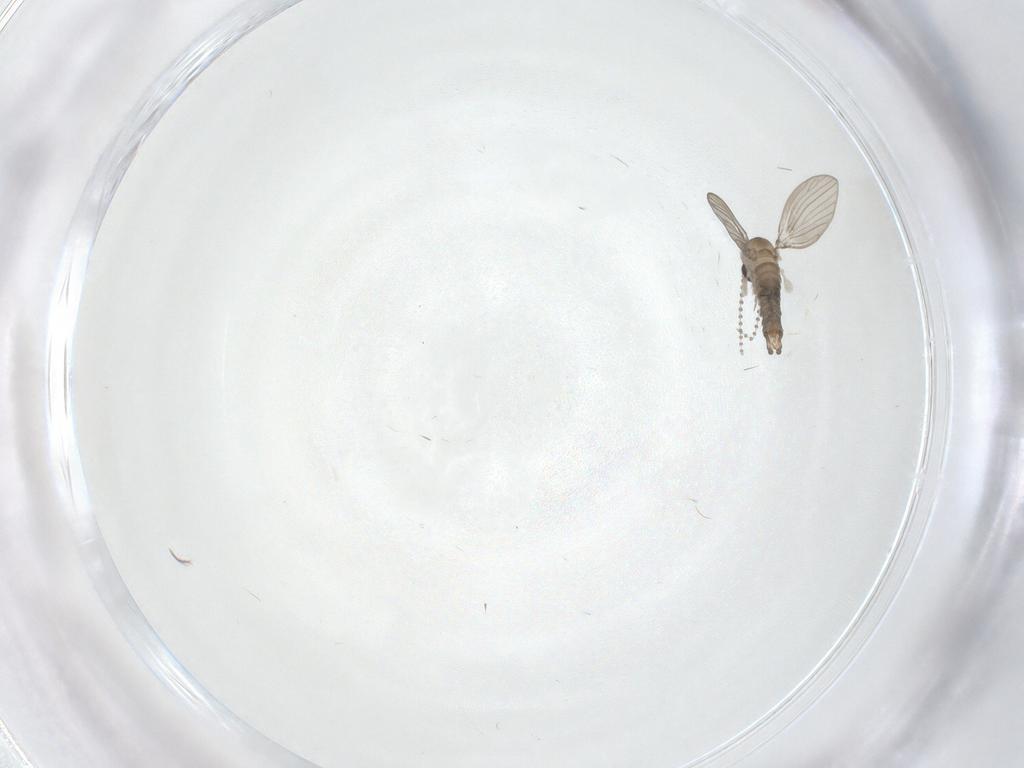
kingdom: Animalia
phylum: Arthropoda
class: Insecta
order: Diptera
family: Psychodidae
